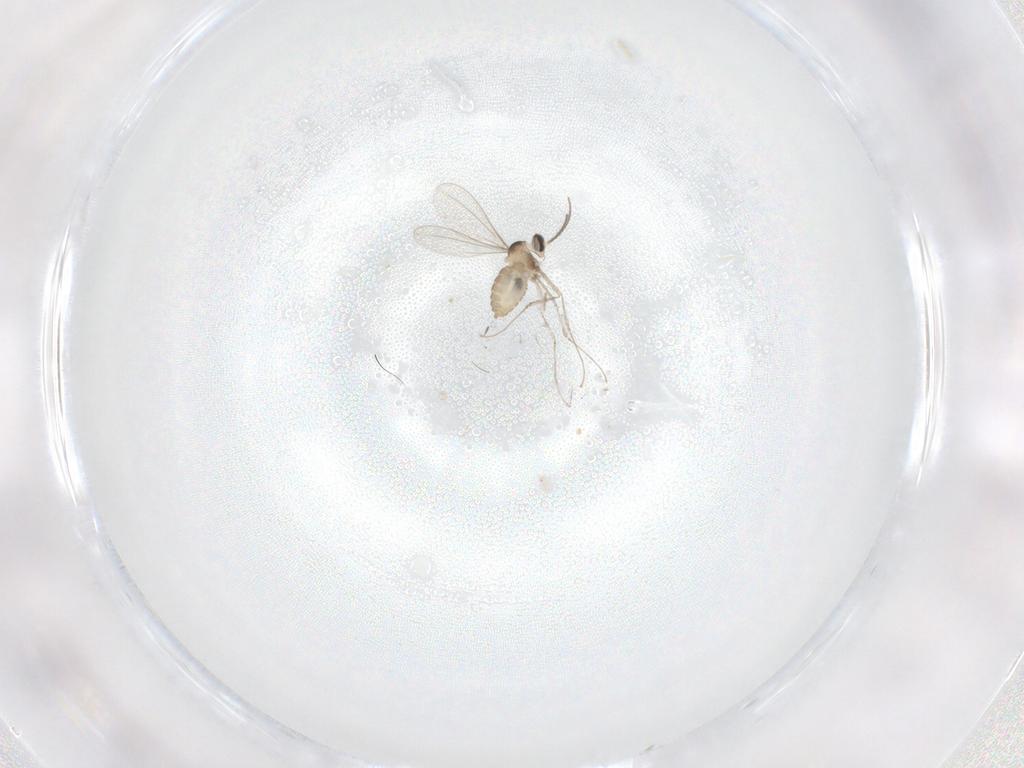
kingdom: Animalia
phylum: Arthropoda
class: Insecta
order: Diptera
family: Cecidomyiidae
